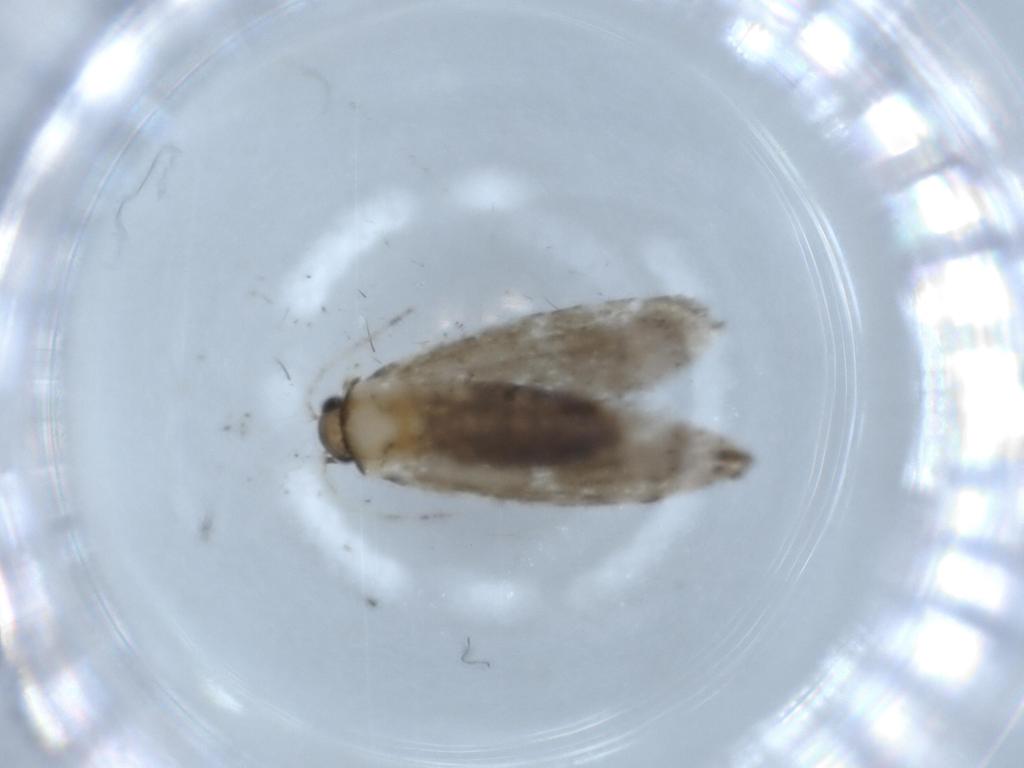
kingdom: Animalia
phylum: Arthropoda
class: Insecta
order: Lepidoptera
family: Tineidae
